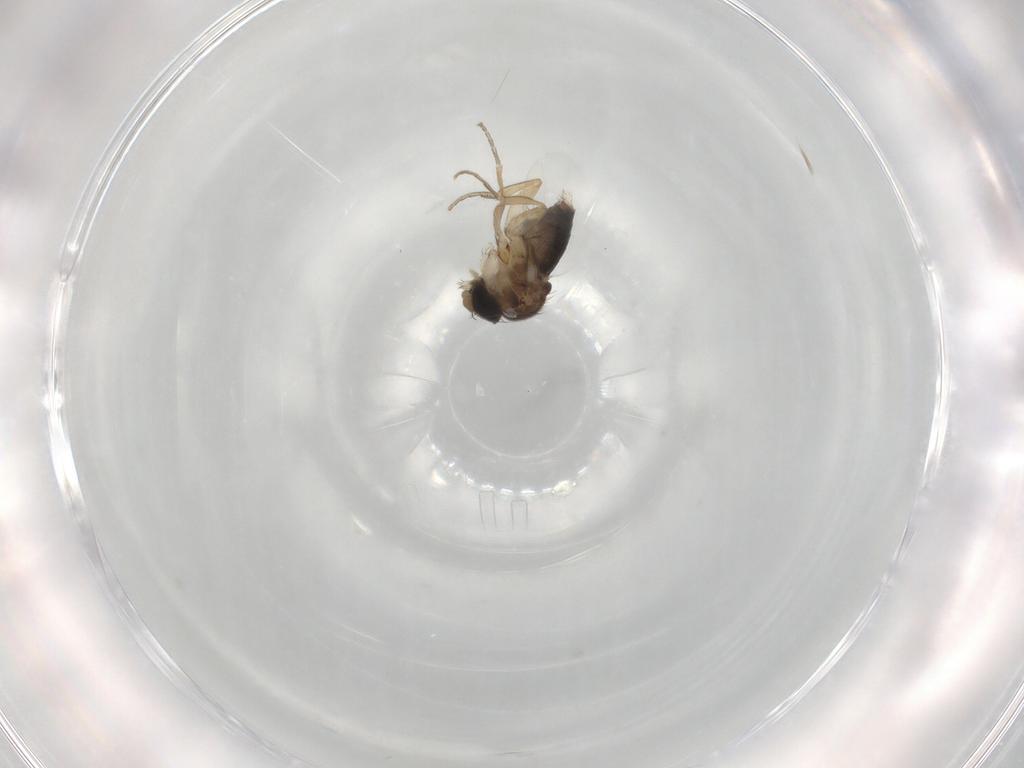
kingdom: Animalia
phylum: Arthropoda
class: Insecta
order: Diptera
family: Phoridae
